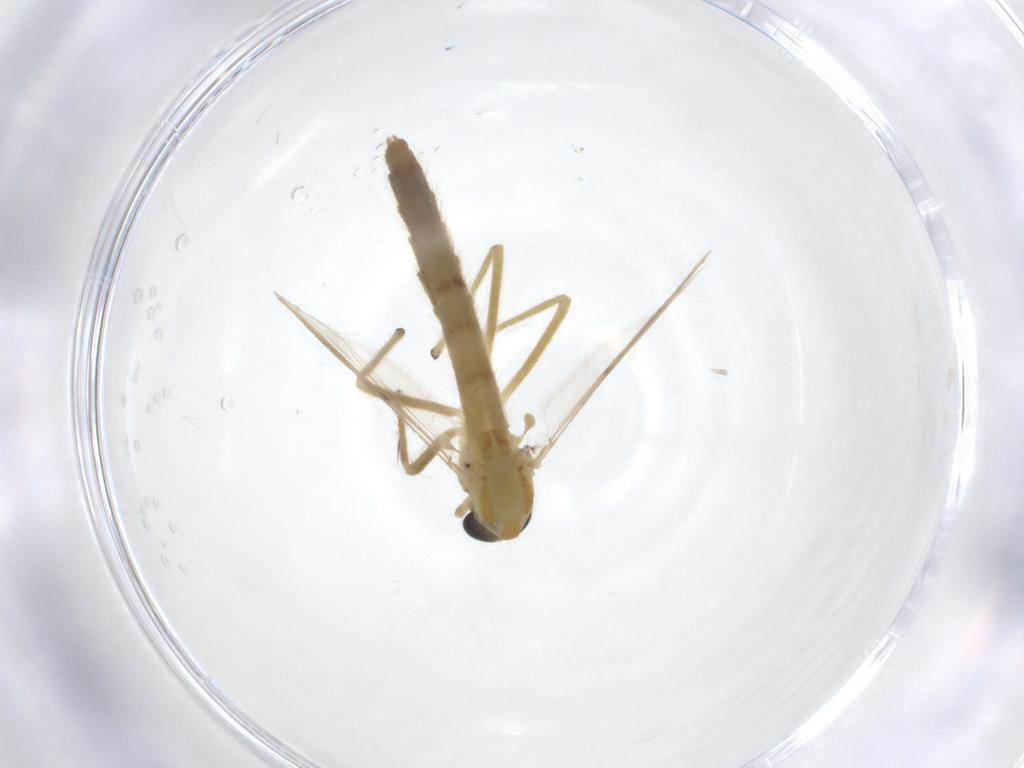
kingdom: Animalia
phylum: Arthropoda
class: Insecta
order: Diptera
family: Chironomidae
